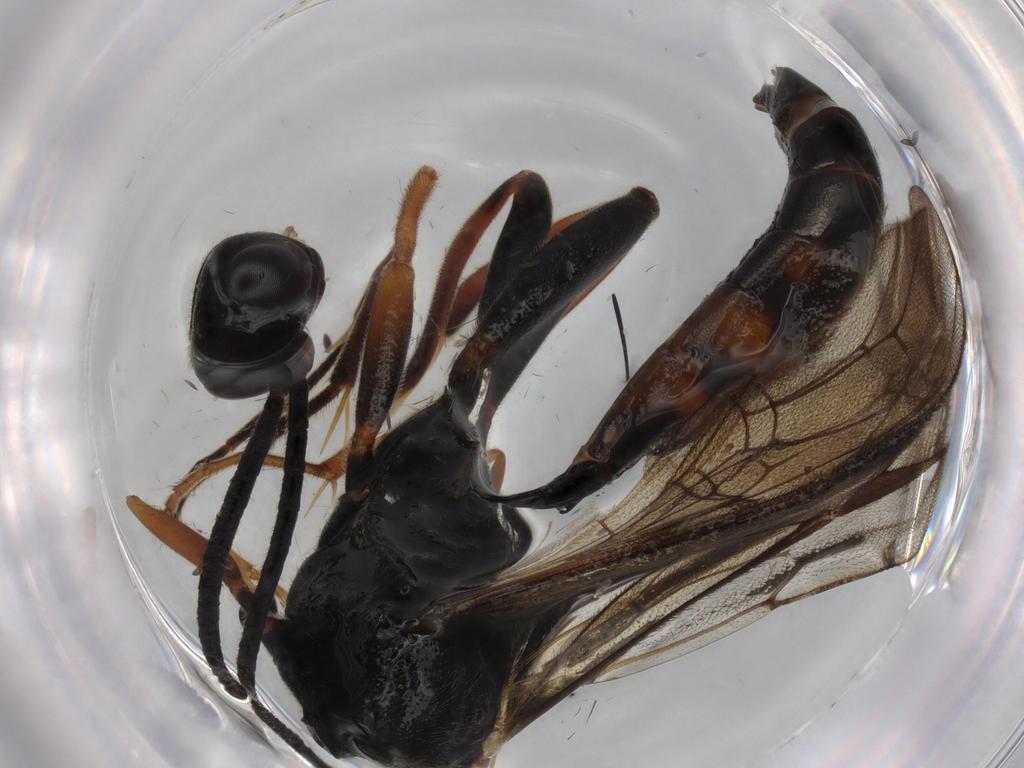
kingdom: Animalia
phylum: Arthropoda
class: Insecta
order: Hymenoptera
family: Ichneumonidae
